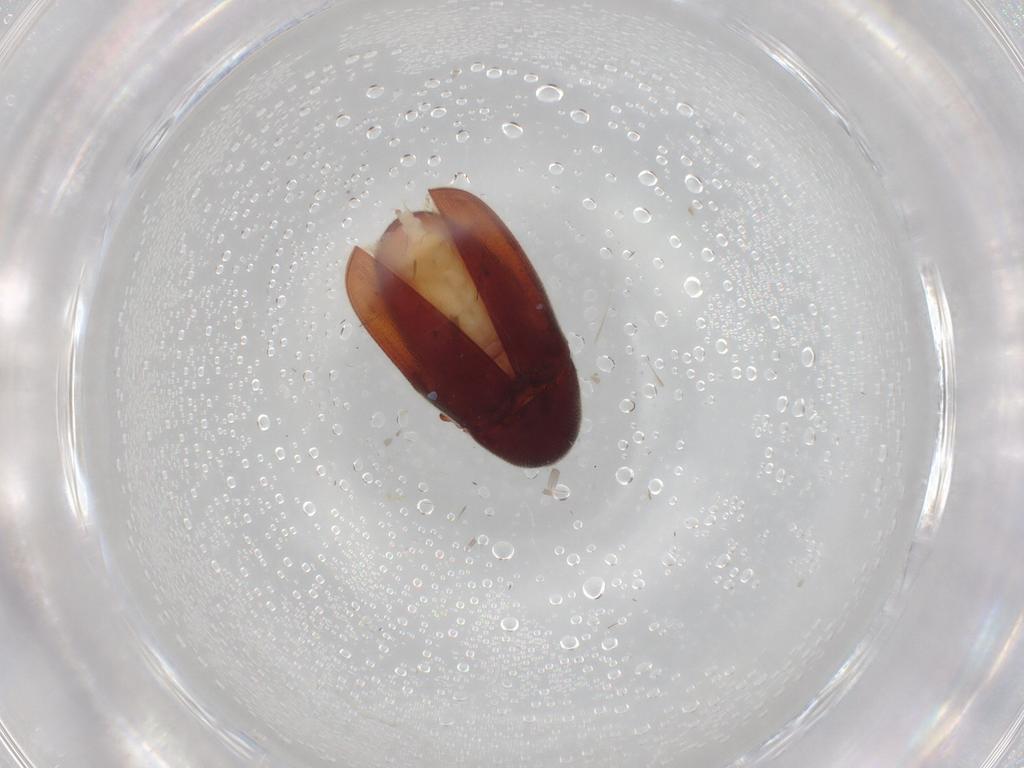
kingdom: Animalia
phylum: Arthropoda
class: Insecta
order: Coleoptera
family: Throscidae
